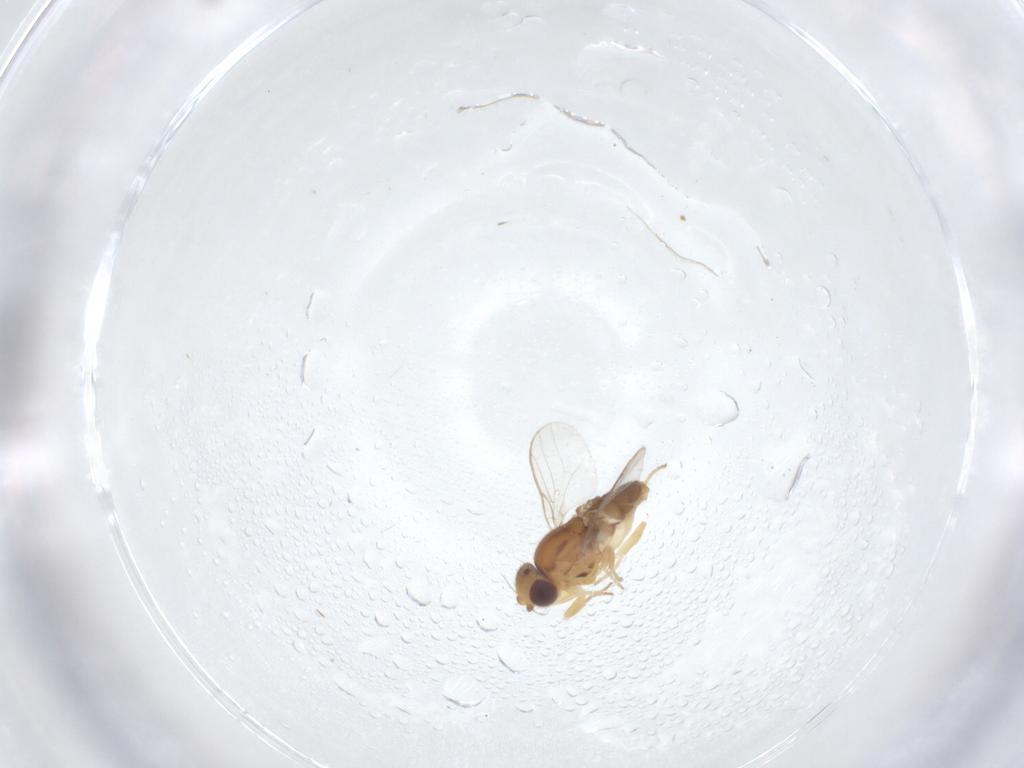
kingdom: Animalia
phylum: Arthropoda
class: Insecta
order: Diptera
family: Chloropidae
